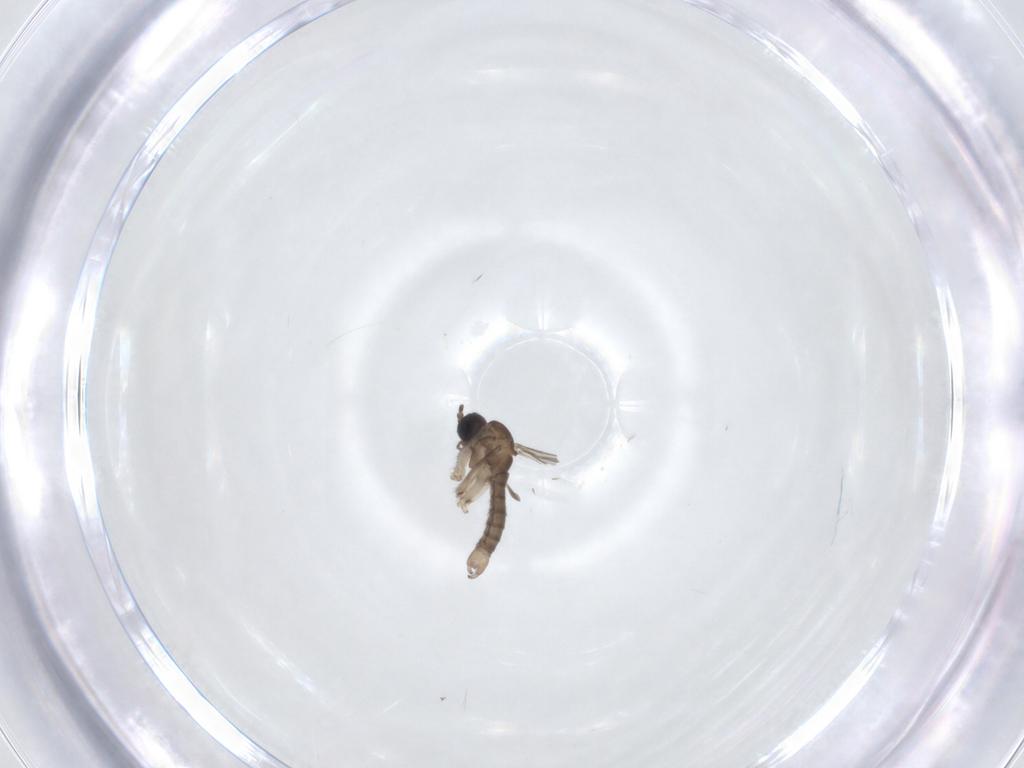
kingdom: Animalia
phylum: Arthropoda
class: Insecta
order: Diptera
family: Sciaridae
